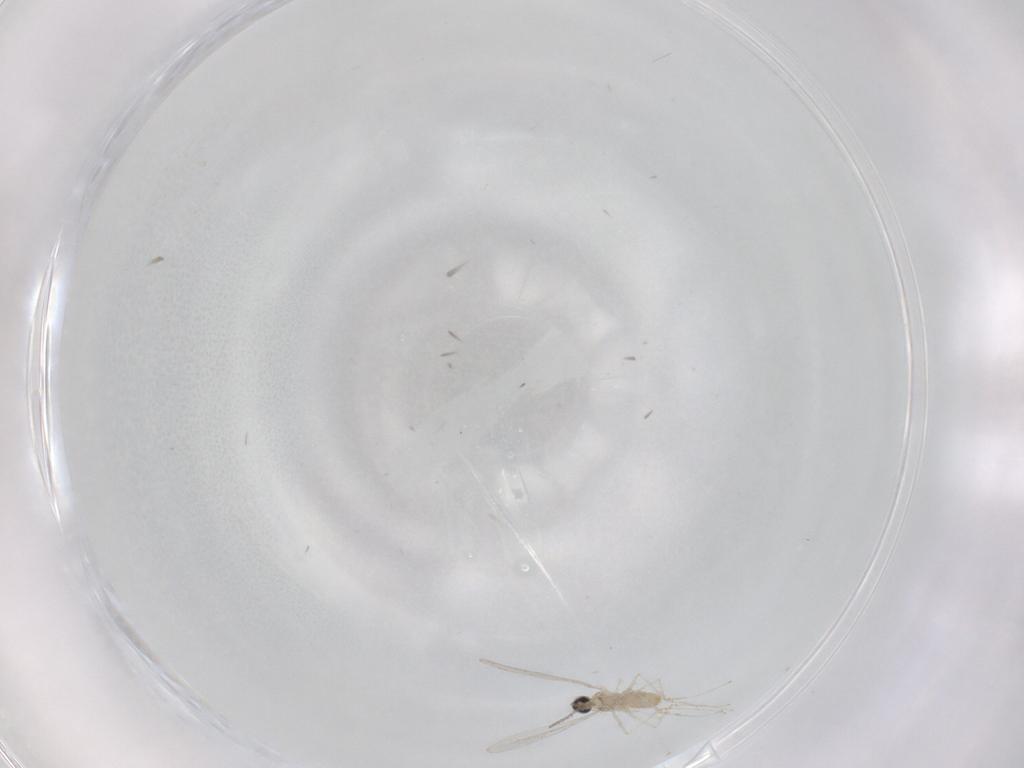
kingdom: Animalia
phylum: Arthropoda
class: Insecta
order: Diptera
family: Cecidomyiidae
